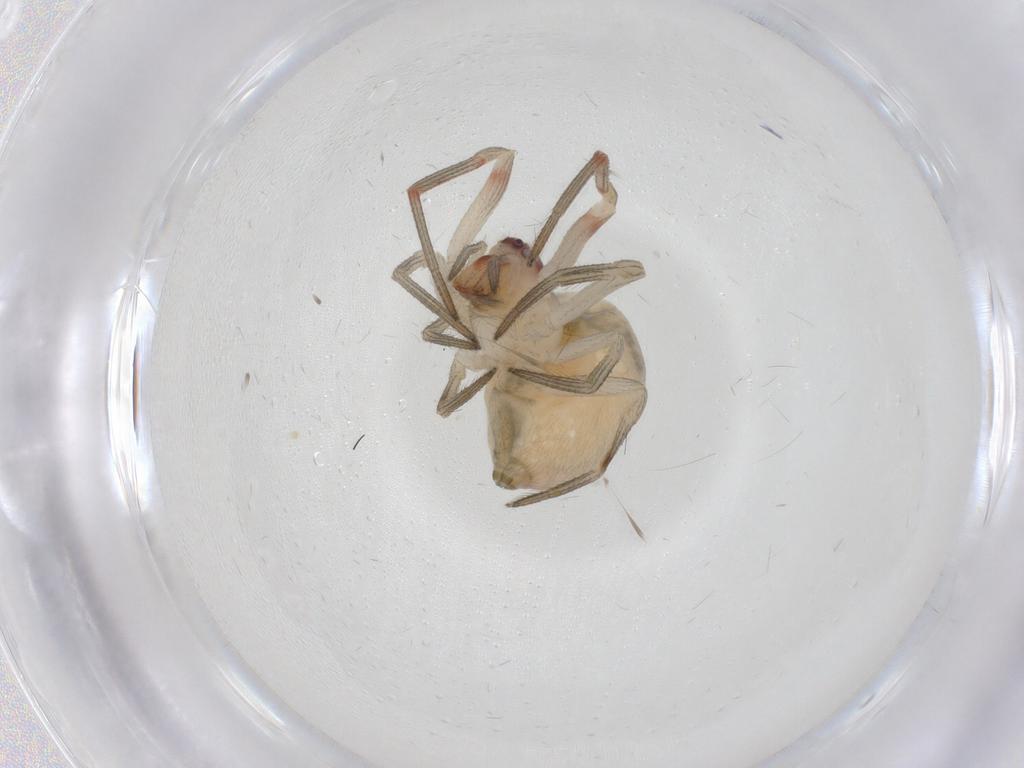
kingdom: Animalia
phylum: Arthropoda
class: Arachnida
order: Araneae
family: Theridiidae
